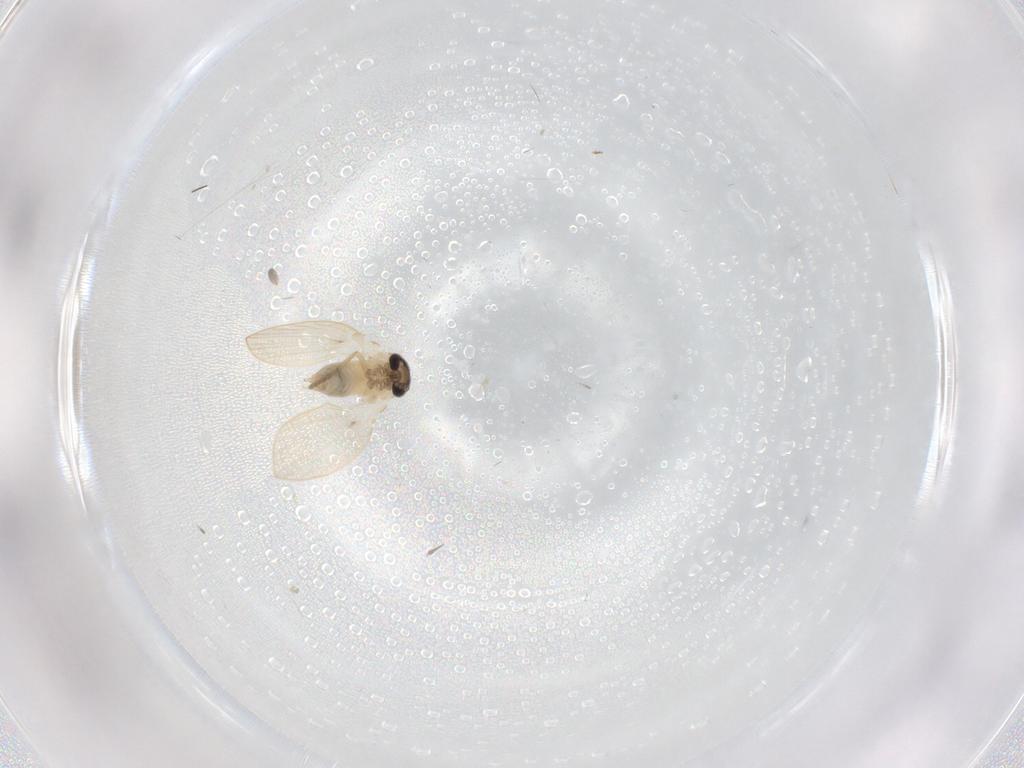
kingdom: Animalia
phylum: Arthropoda
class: Insecta
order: Diptera
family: Psychodidae
